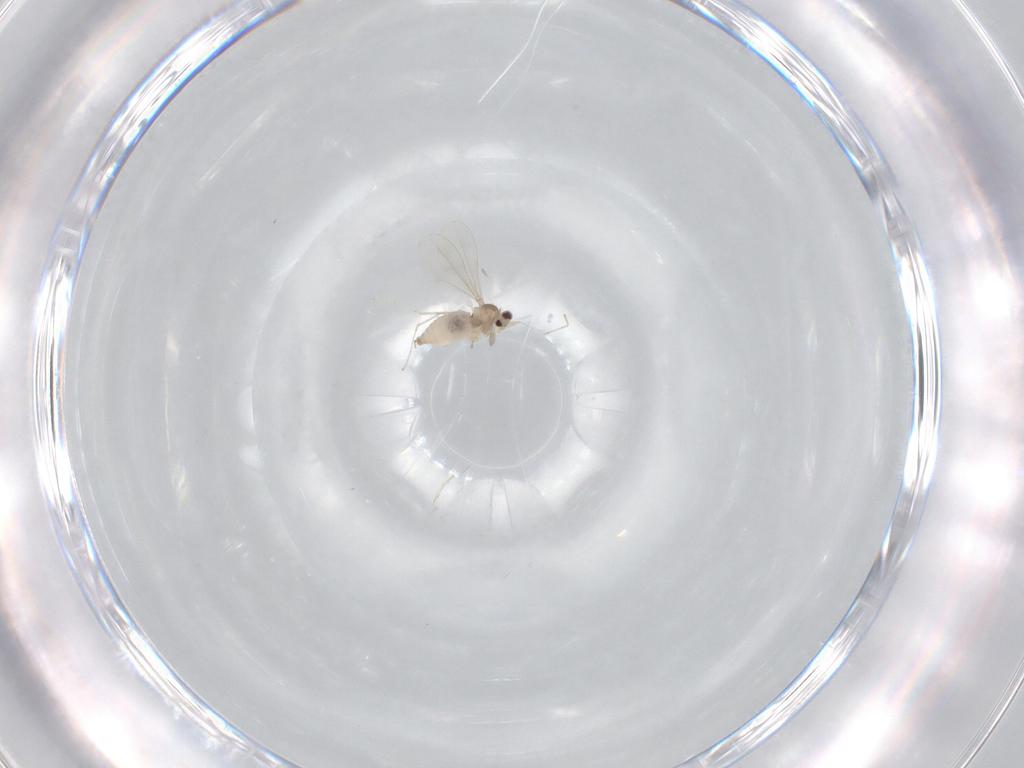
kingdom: Animalia
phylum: Arthropoda
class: Insecta
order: Diptera
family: Cecidomyiidae
